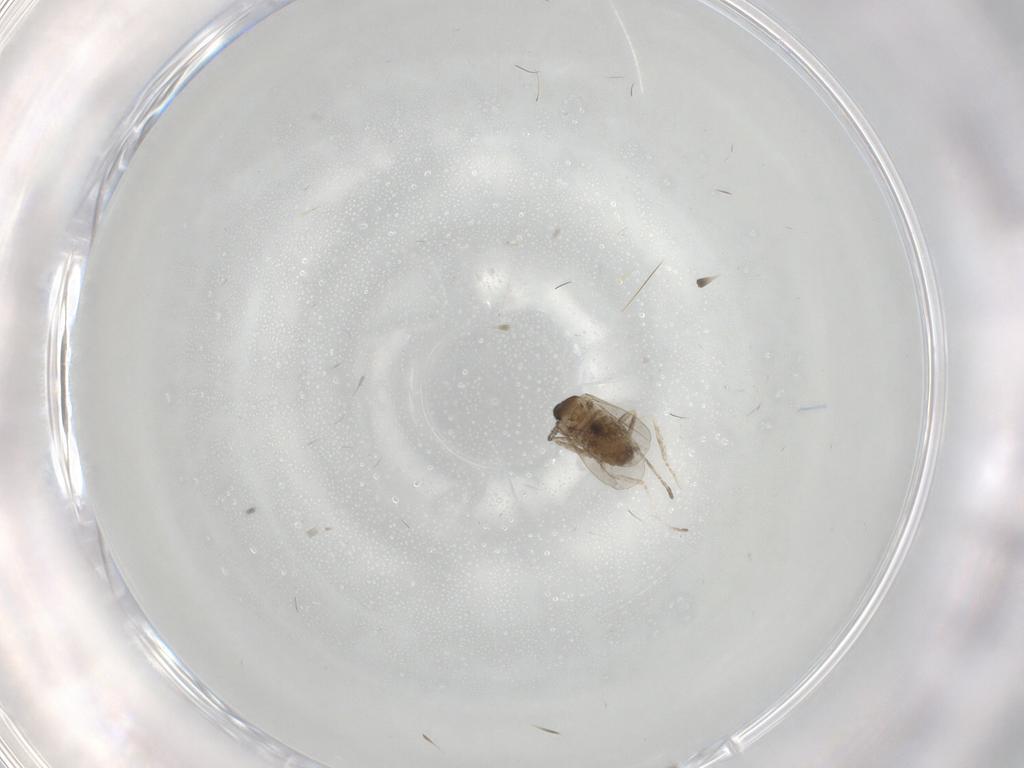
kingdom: Animalia
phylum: Arthropoda
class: Insecta
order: Diptera
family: Cecidomyiidae
